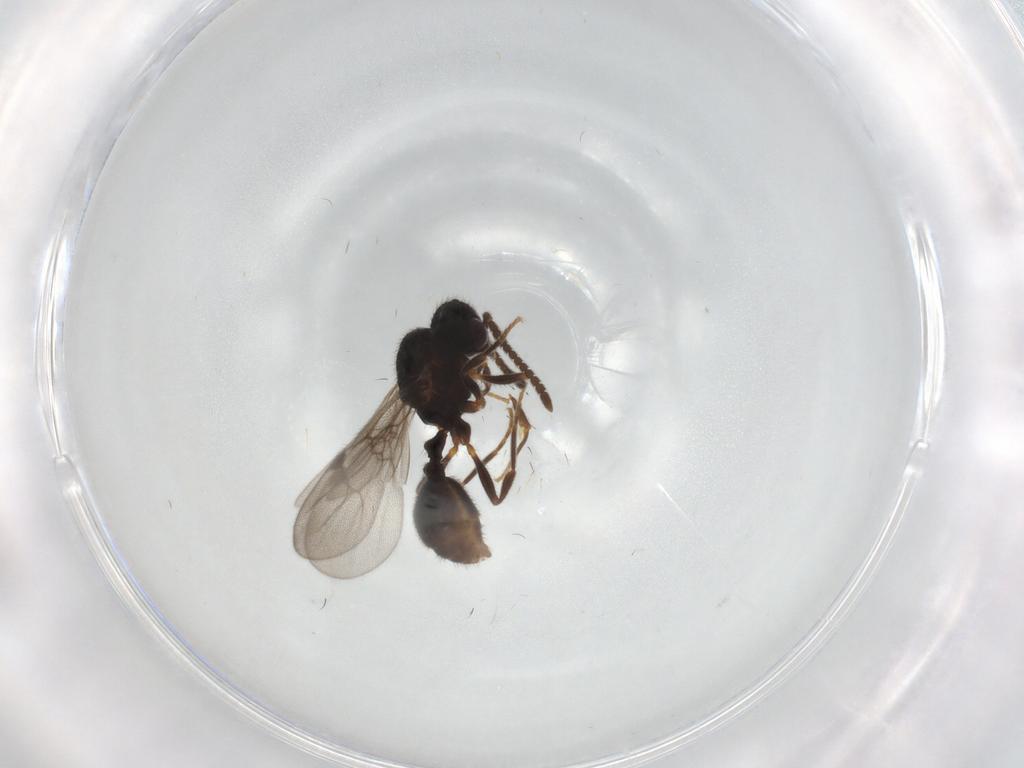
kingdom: Animalia
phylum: Arthropoda
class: Insecta
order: Hymenoptera
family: Formicidae
